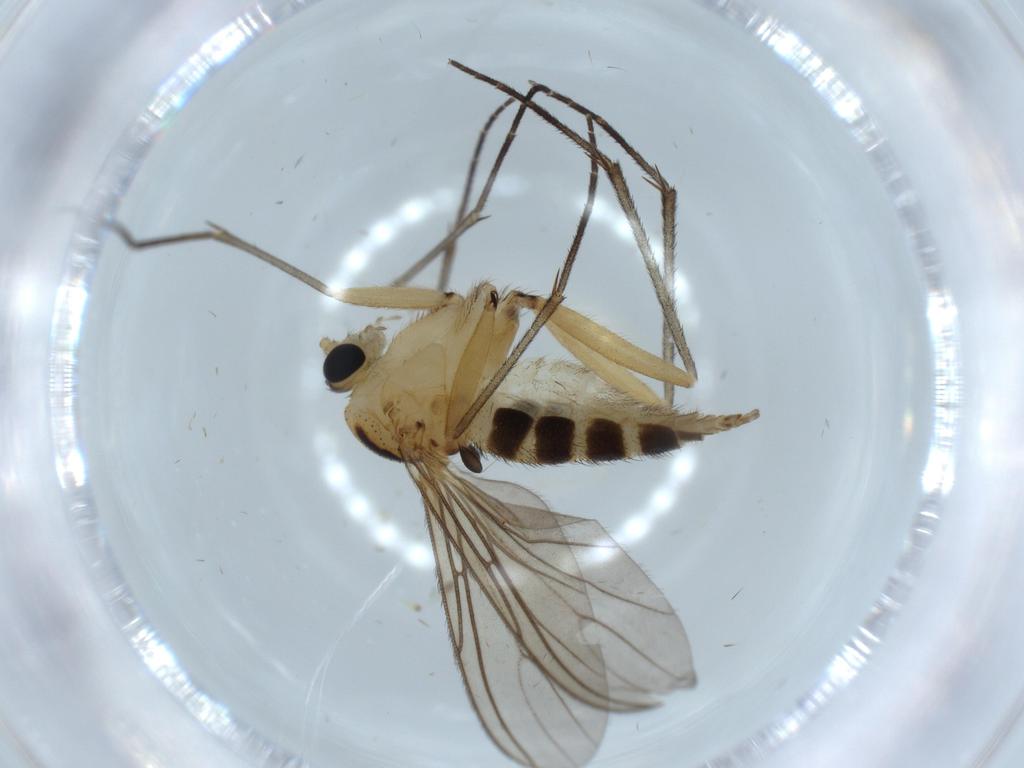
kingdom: Animalia
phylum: Arthropoda
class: Insecta
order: Diptera
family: Sciaridae
